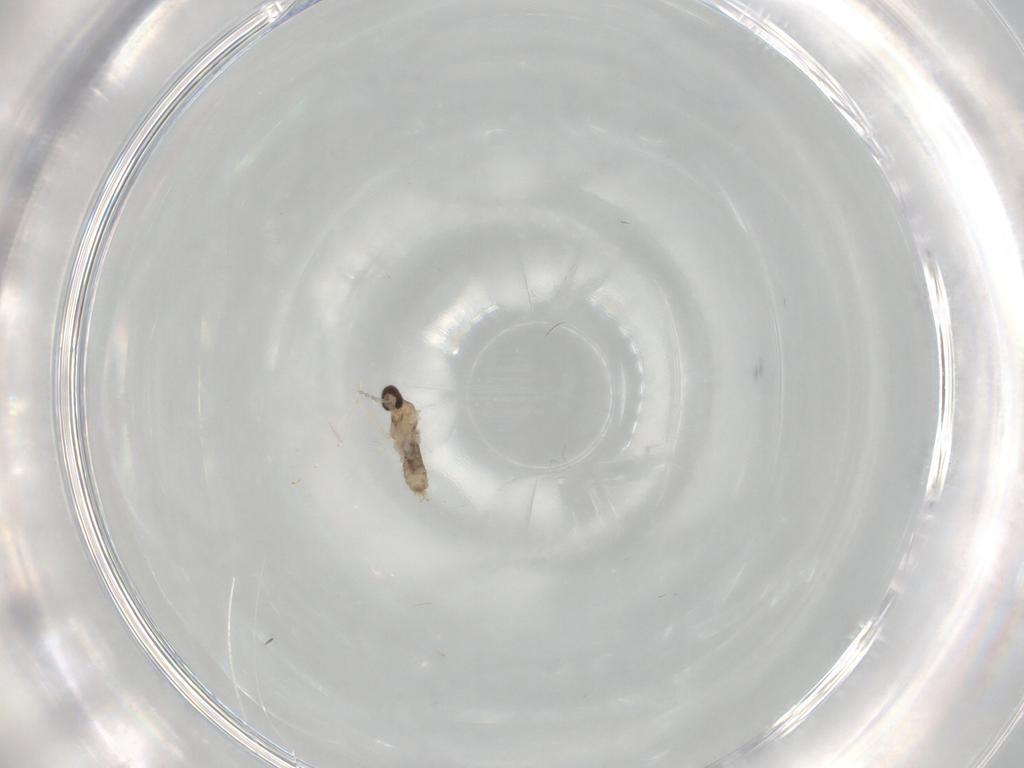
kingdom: Animalia
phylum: Arthropoda
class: Insecta
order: Diptera
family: Cecidomyiidae
